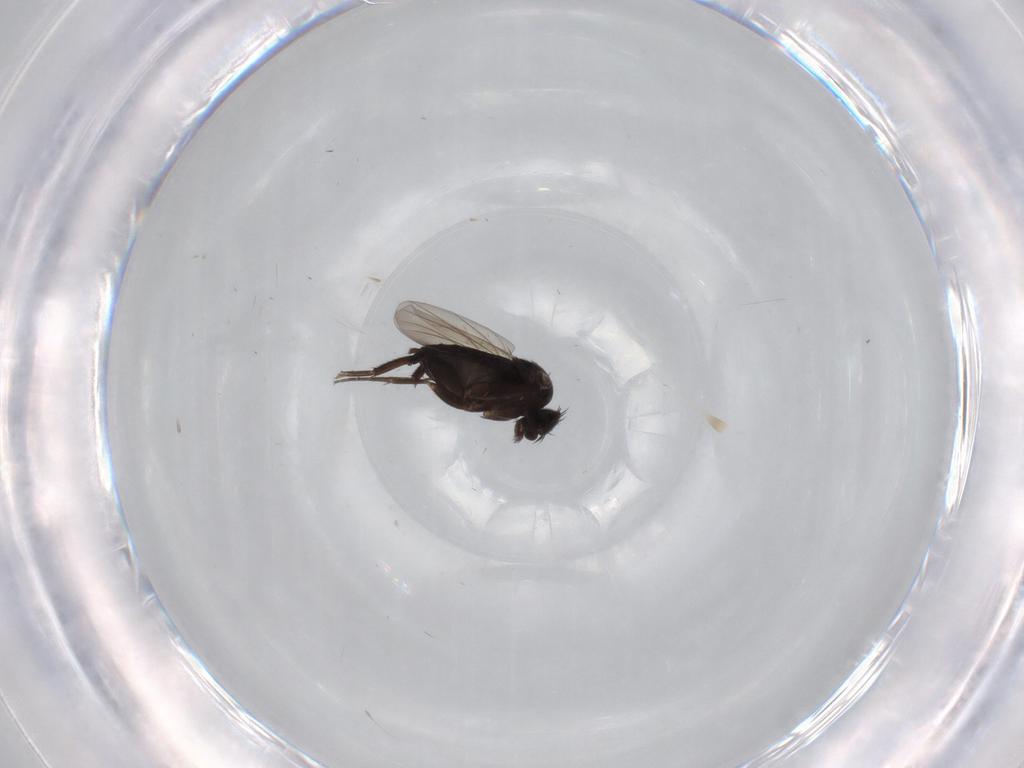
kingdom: Animalia
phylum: Arthropoda
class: Insecta
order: Diptera
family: Phoridae
